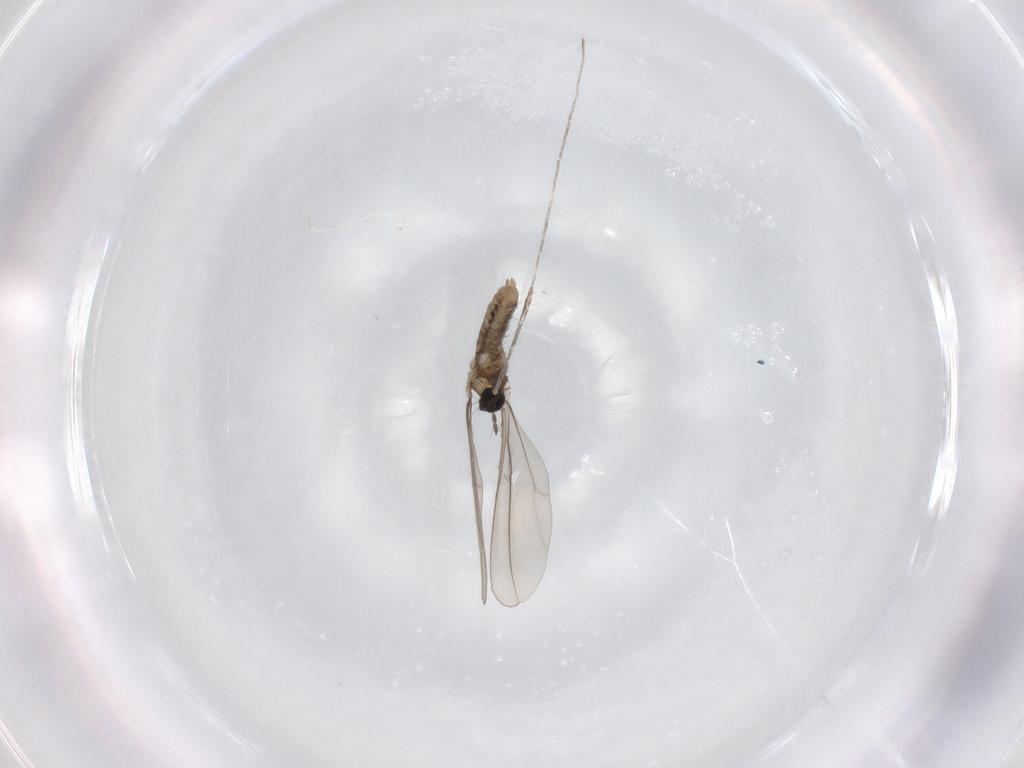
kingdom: Animalia
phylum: Arthropoda
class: Insecta
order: Diptera
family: Cecidomyiidae
